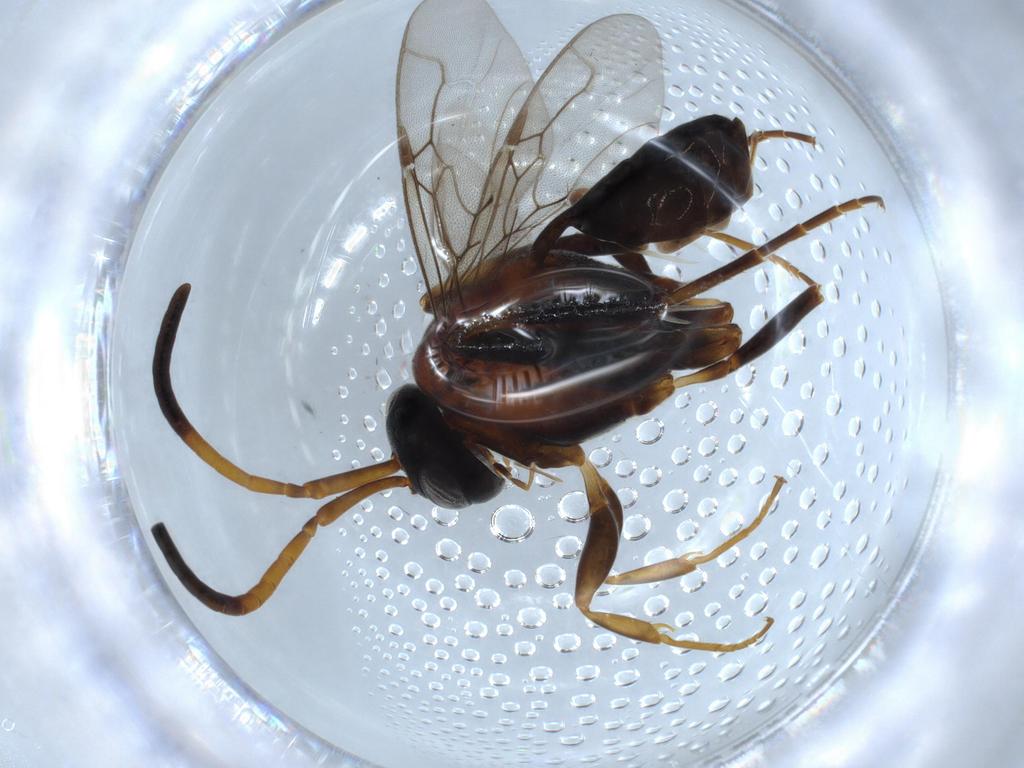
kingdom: Animalia
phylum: Arthropoda
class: Insecta
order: Hymenoptera
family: Evaniidae
